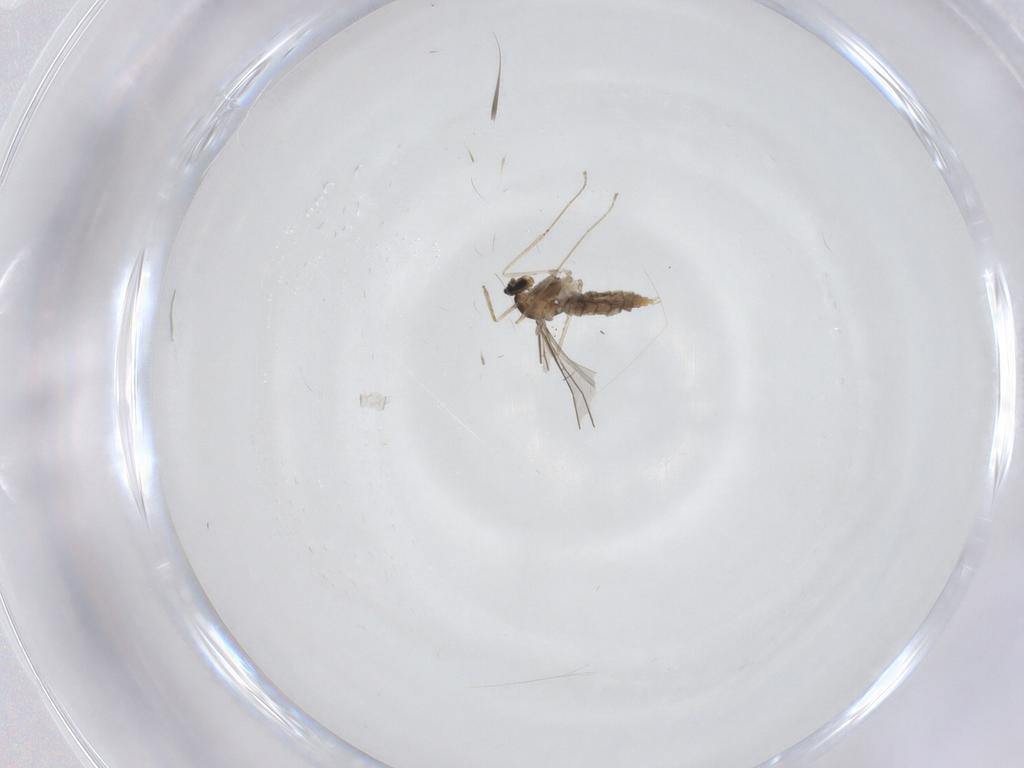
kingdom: Animalia
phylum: Arthropoda
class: Insecta
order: Diptera
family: Cecidomyiidae
